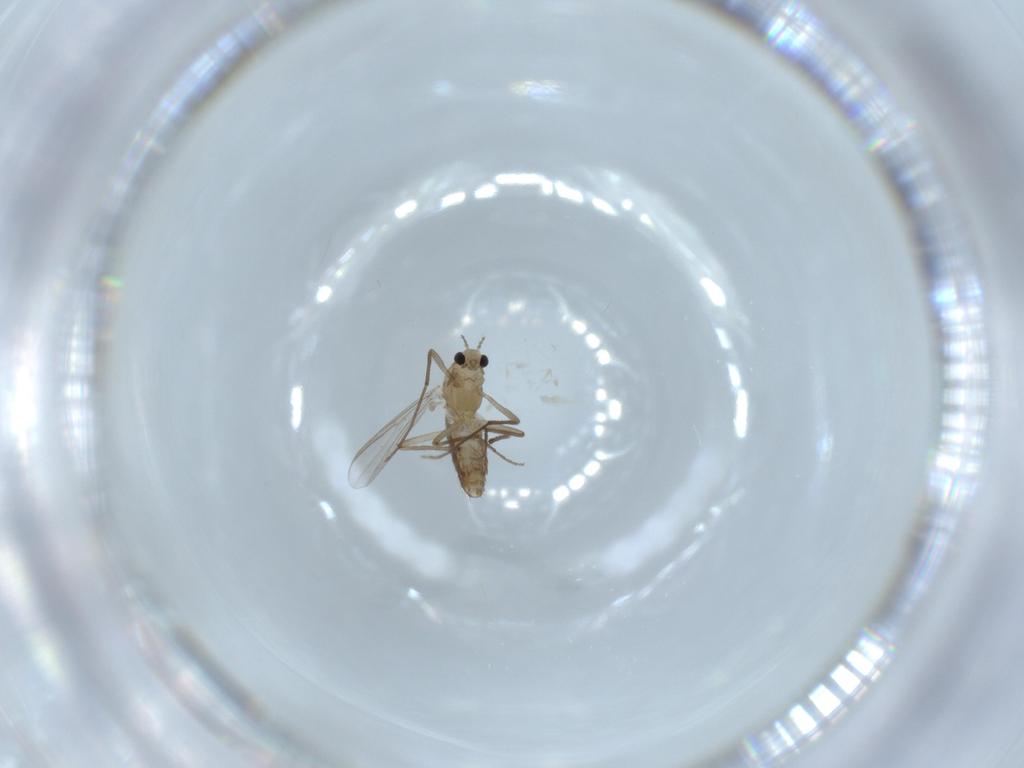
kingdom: Animalia
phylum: Arthropoda
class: Insecta
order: Diptera
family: Chironomidae
